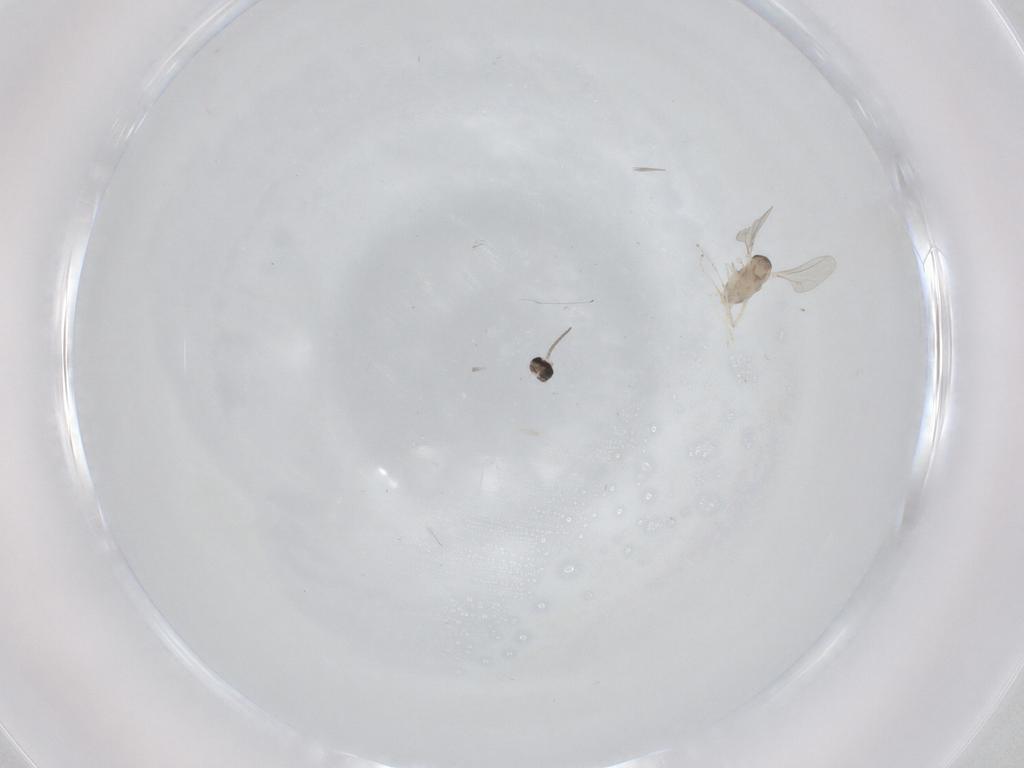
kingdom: Animalia
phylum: Arthropoda
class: Insecta
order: Diptera
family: Cecidomyiidae
